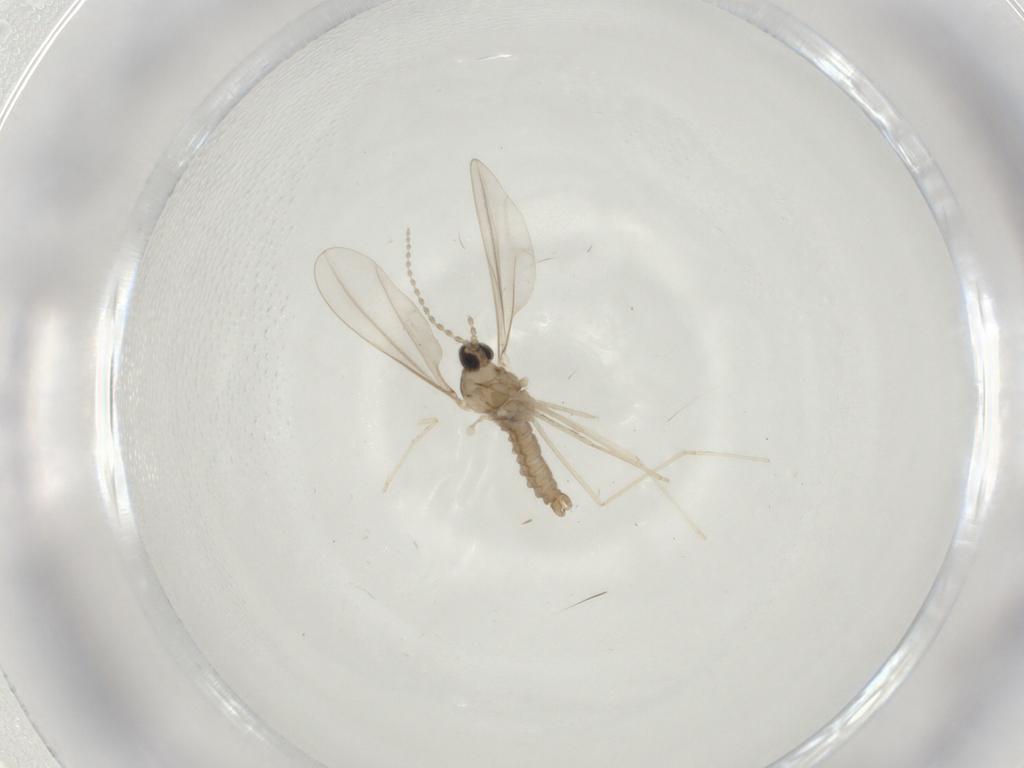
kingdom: Animalia
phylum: Arthropoda
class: Insecta
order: Diptera
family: Cecidomyiidae
